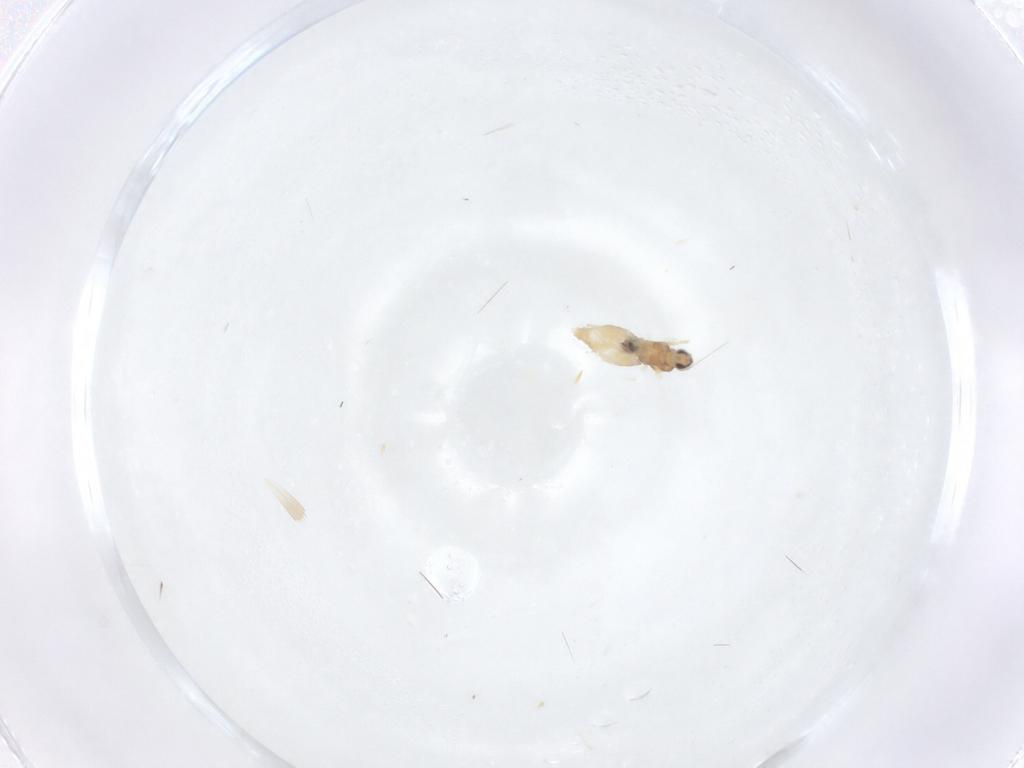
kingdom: Animalia
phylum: Arthropoda
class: Insecta
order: Diptera
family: Cecidomyiidae
